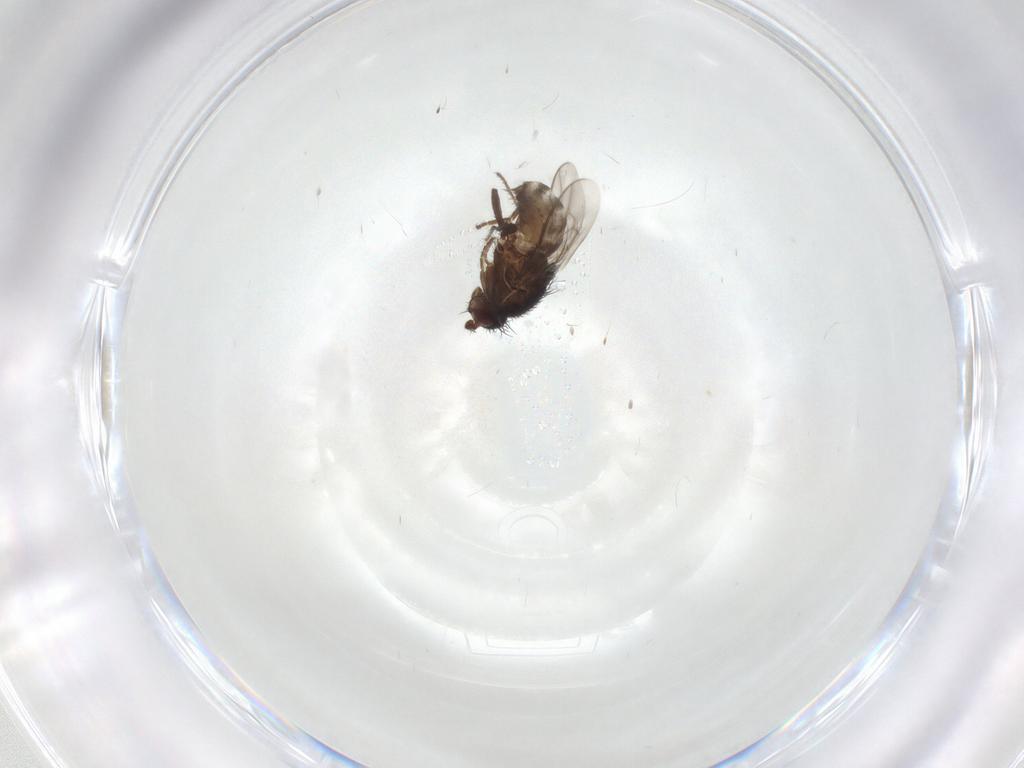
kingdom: Animalia
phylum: Arthropoda
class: Insecta
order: Diptera
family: Sphaeroceridae
